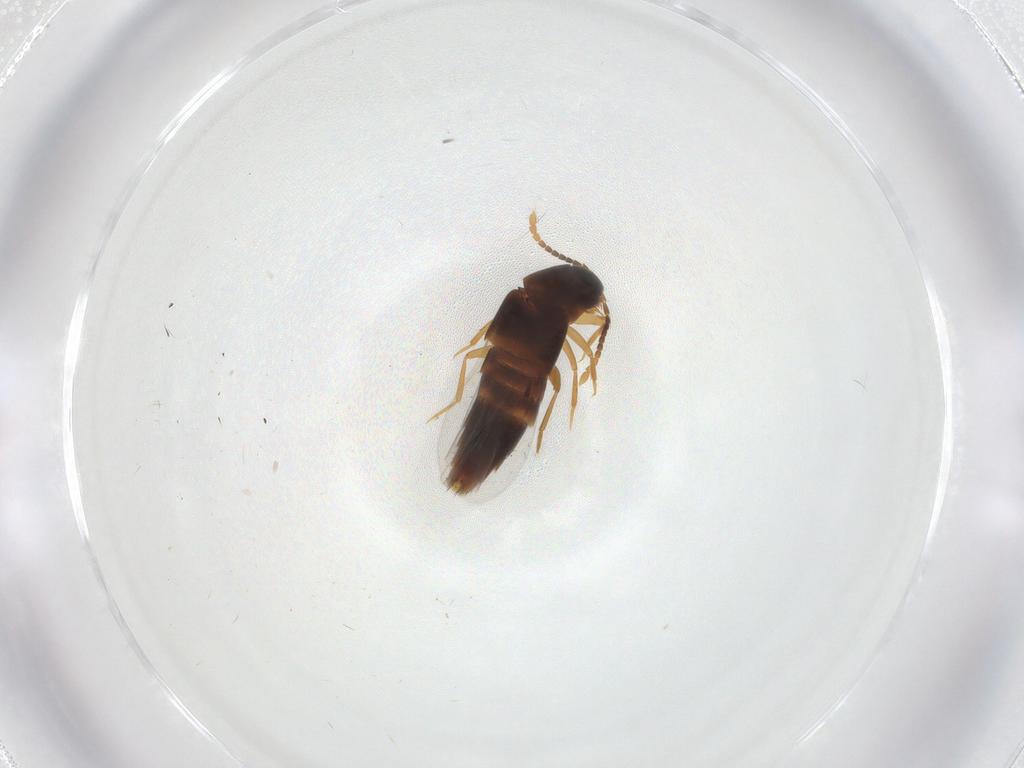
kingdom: Animalia
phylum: Arthropoda
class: Insecta
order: Coleoptera
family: Staphylinidae
